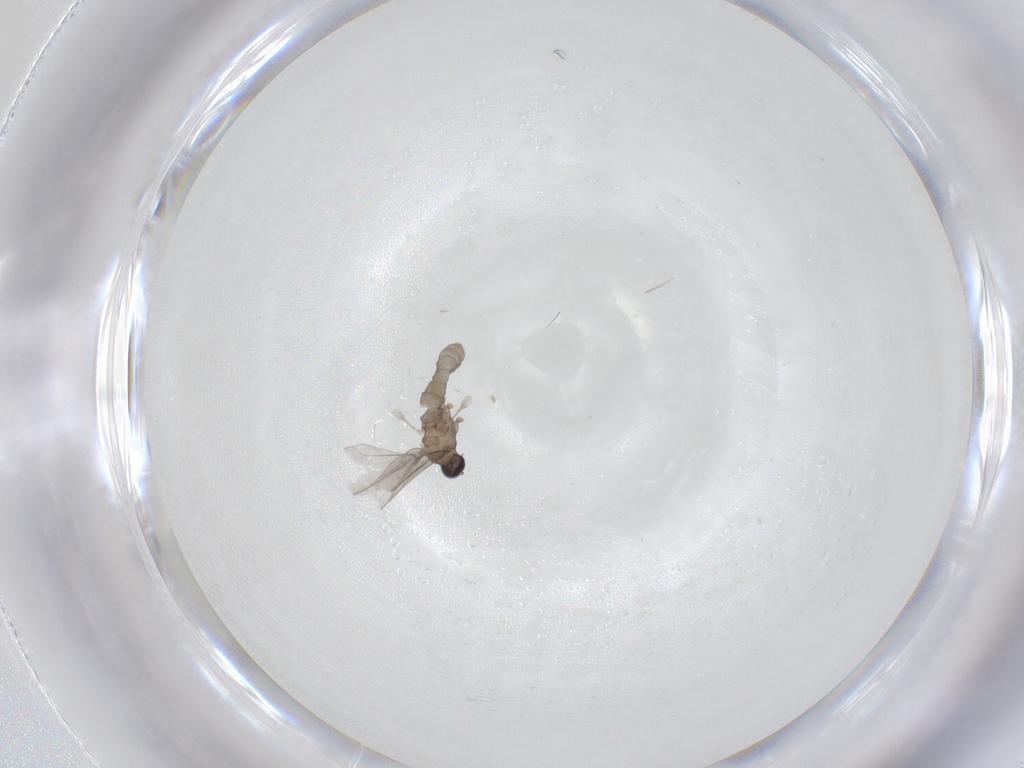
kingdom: Animalia
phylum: Arthropoda
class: Insecta
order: Diptera
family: Cecidomyiidae
